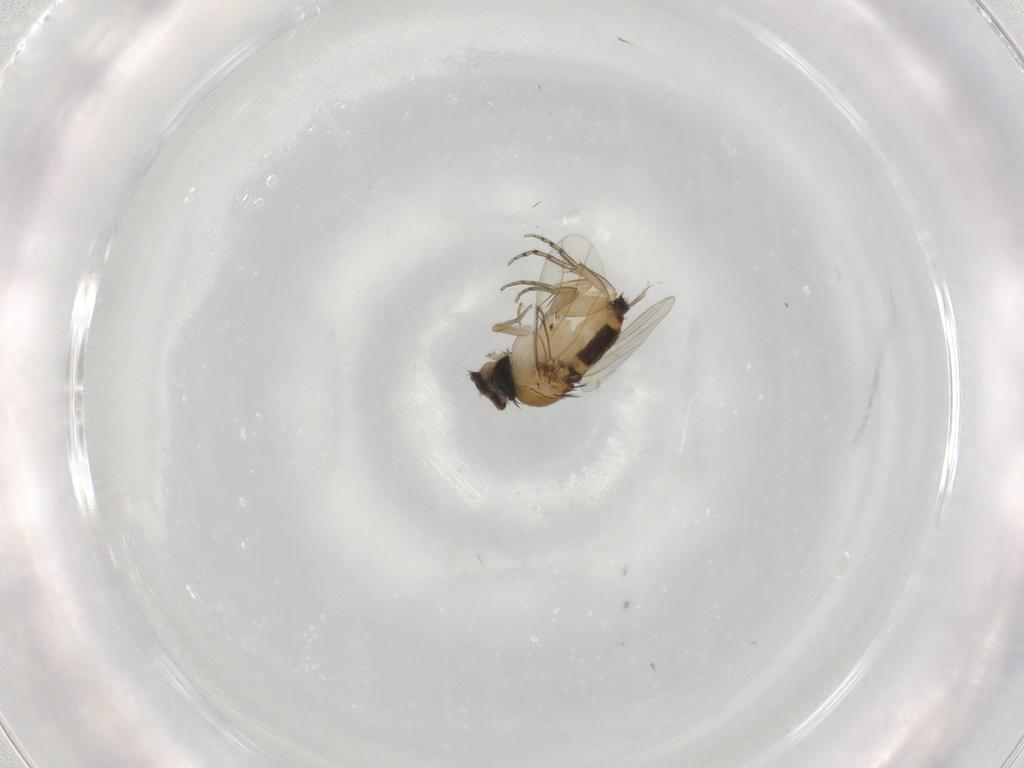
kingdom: Animalia
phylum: Arthropoda
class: Insecta
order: Diptera
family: Phoridae
